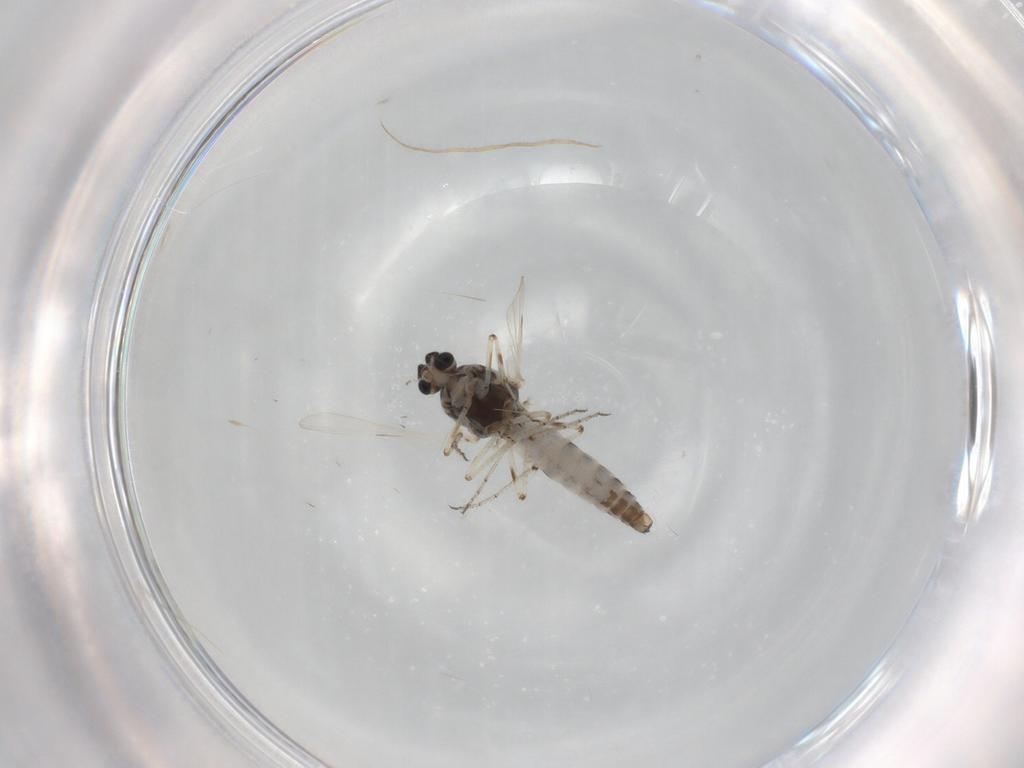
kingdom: Animalia
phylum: Arthropoda
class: Insecta
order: Diptera
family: Ceratopogonidae
